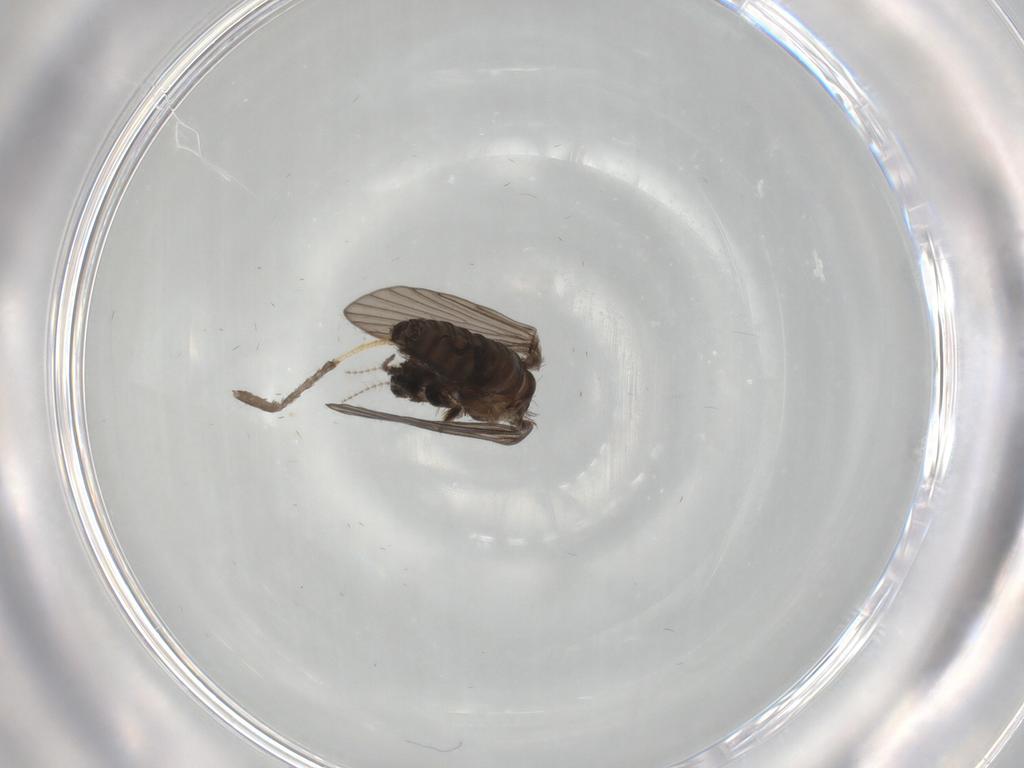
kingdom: Animalia
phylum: Arthropoda
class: Insecta
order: Diptera
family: Psychodidae
